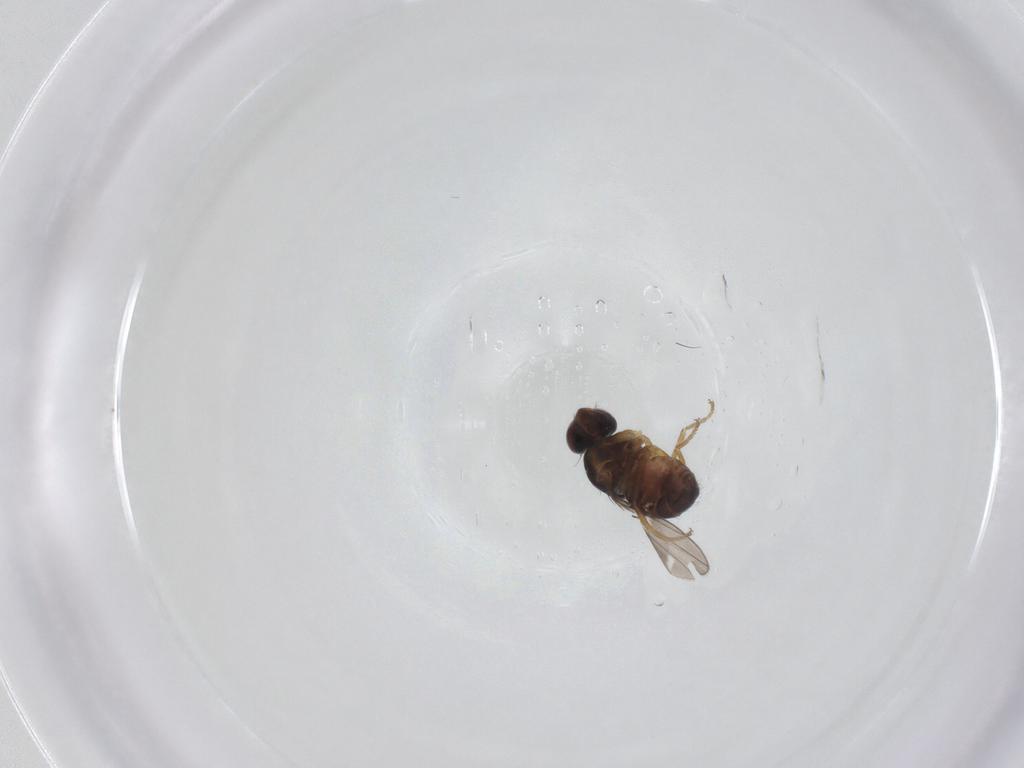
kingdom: Animalia
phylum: Arthropoda
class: Insecta
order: Diptera
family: Ephydridae
